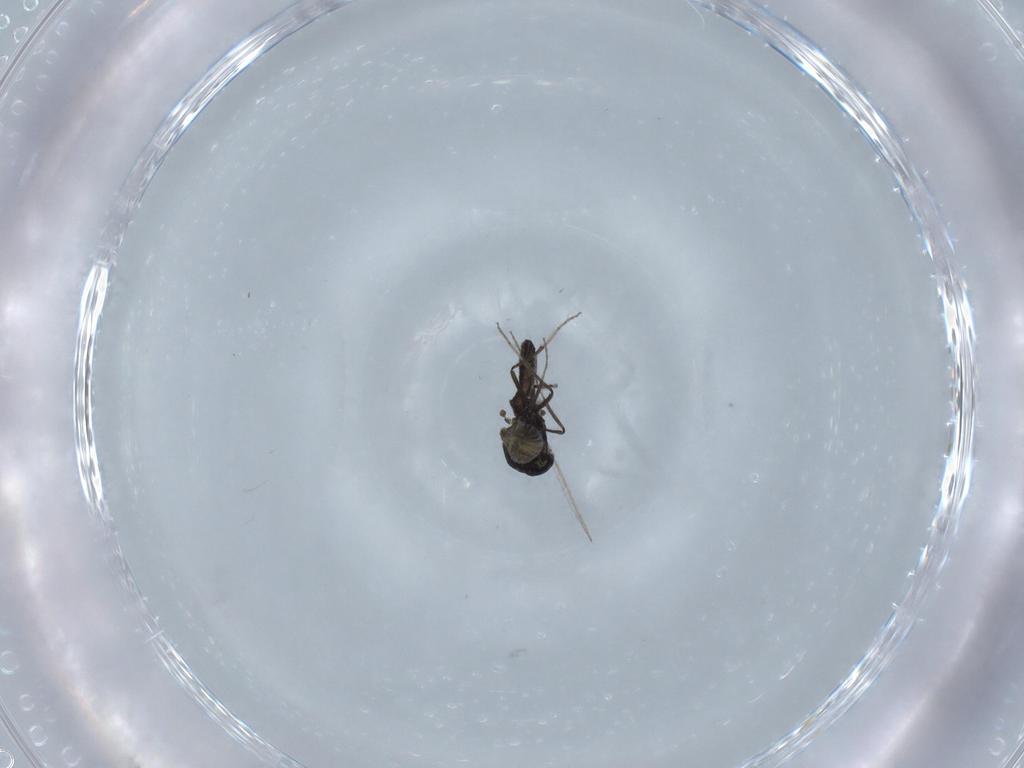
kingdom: Animalia
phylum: Arthropoda
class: Insecta
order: Diptera
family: Ceratopogonidae
